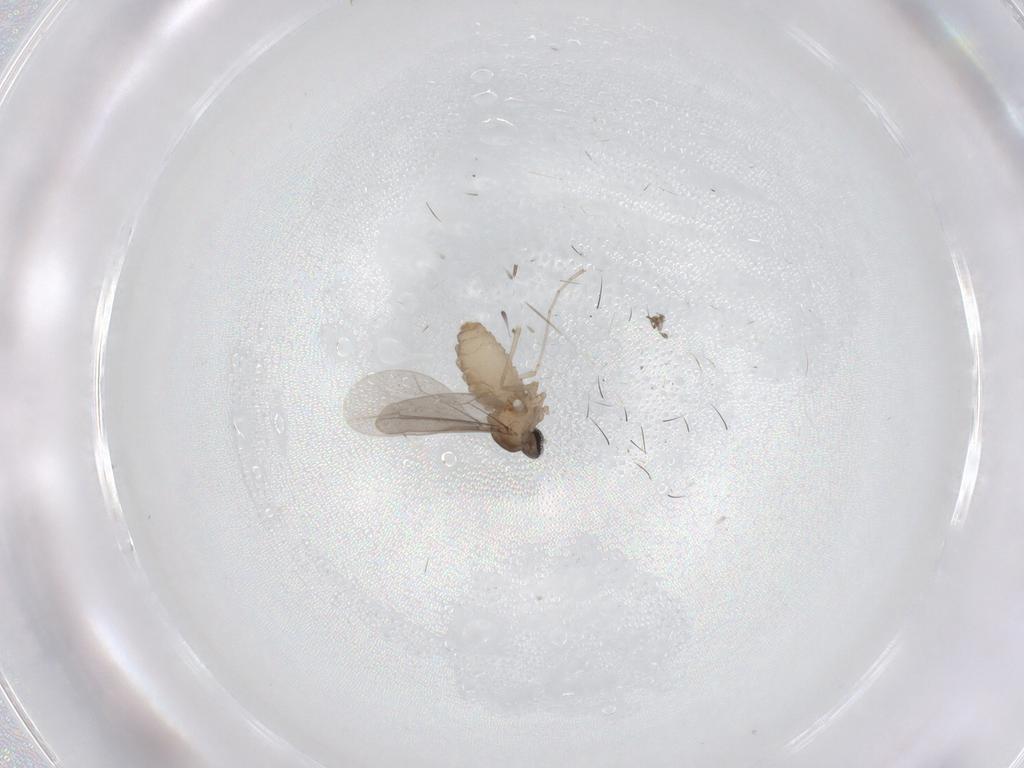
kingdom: Animalia
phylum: Arthropoda
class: Insecta
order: Diptera
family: Cecidomyiidae
